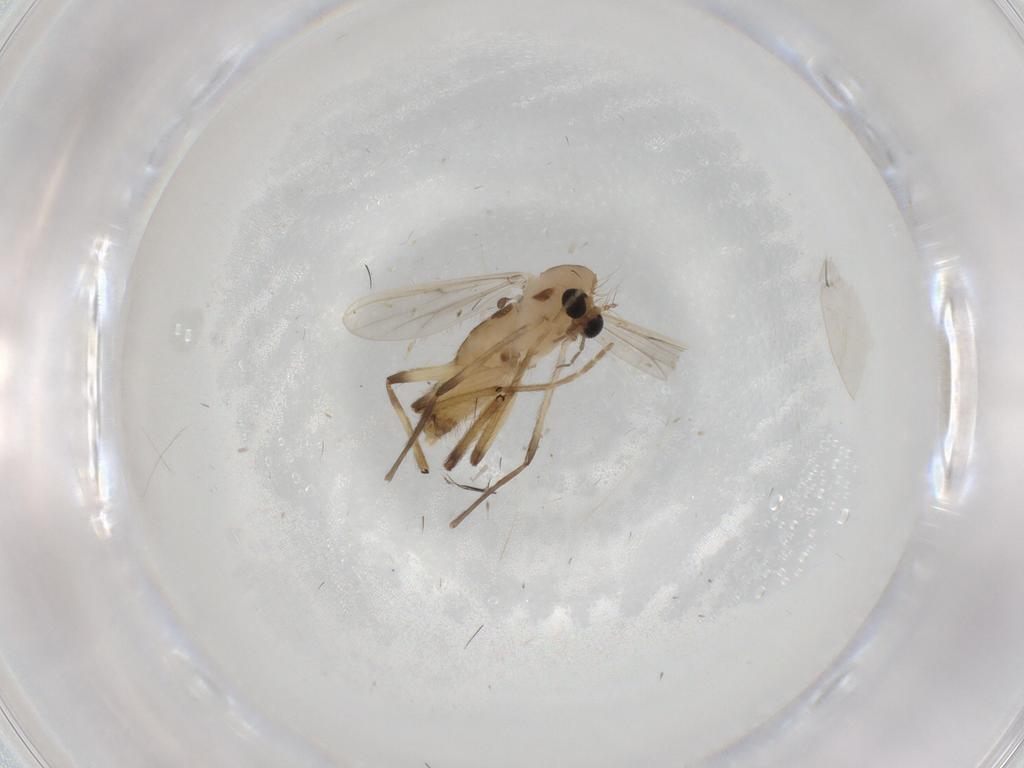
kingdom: Animalia
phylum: Arthropoda
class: Insecta
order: Diptera
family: Chironomidae
